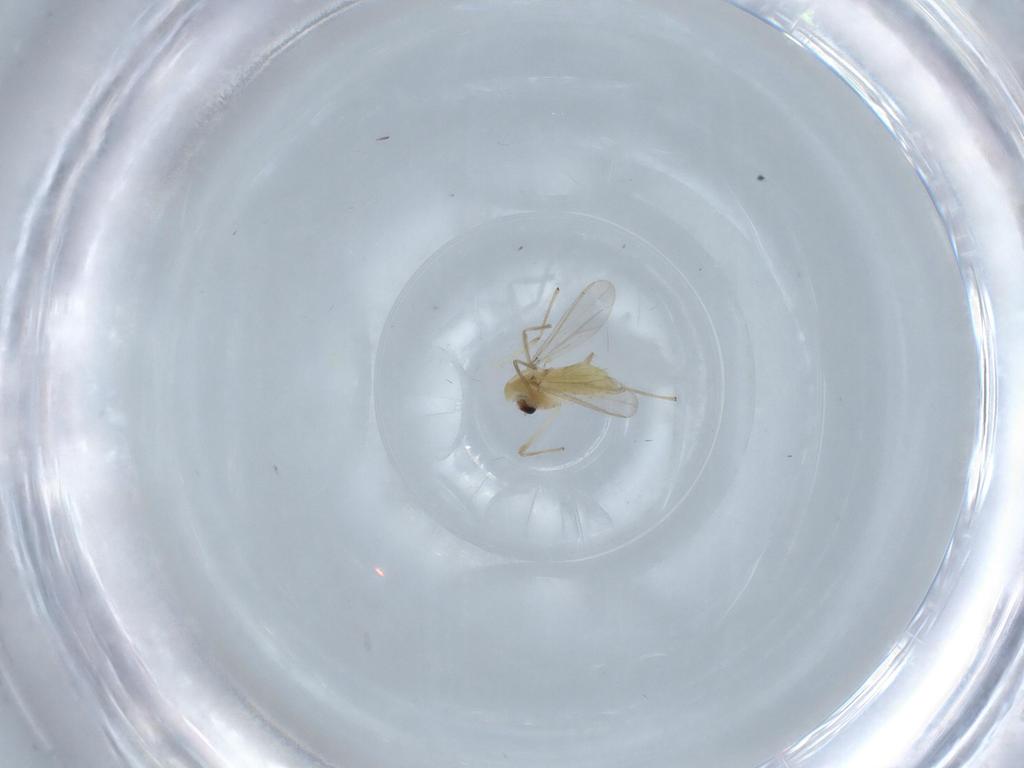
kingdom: Animalia
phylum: Arthropoda
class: Insecta
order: Diptera
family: Chironomidae
